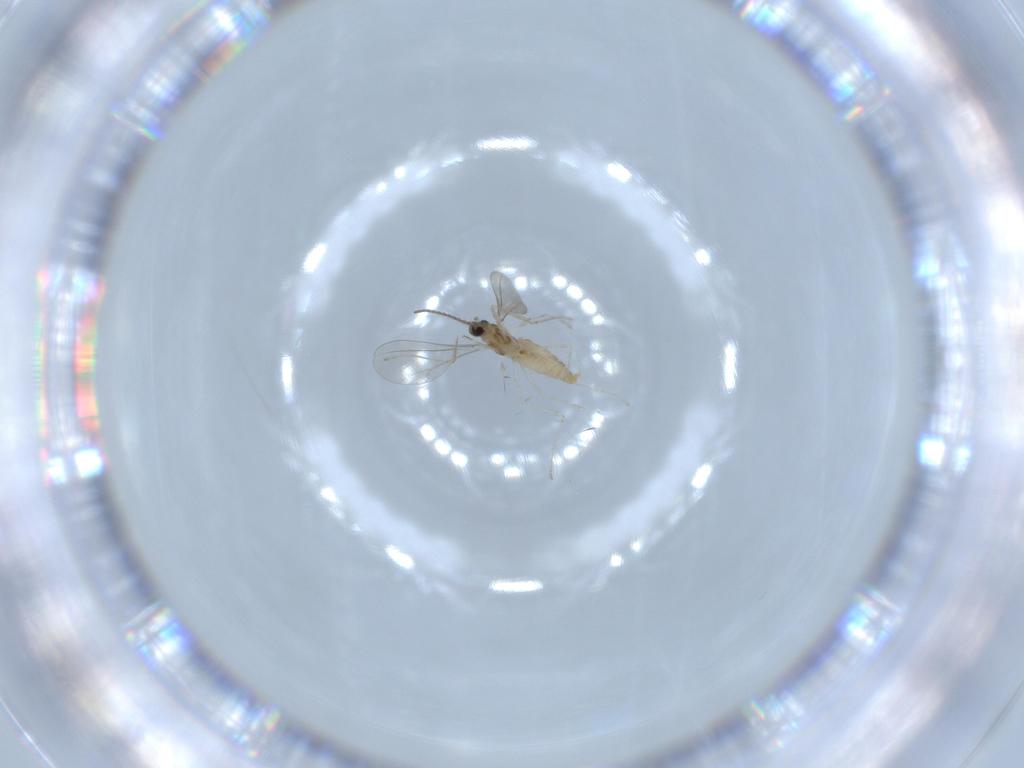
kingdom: Animalia
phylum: Arthropoda
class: Insecta
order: Diptera
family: Cecidomyiidae
